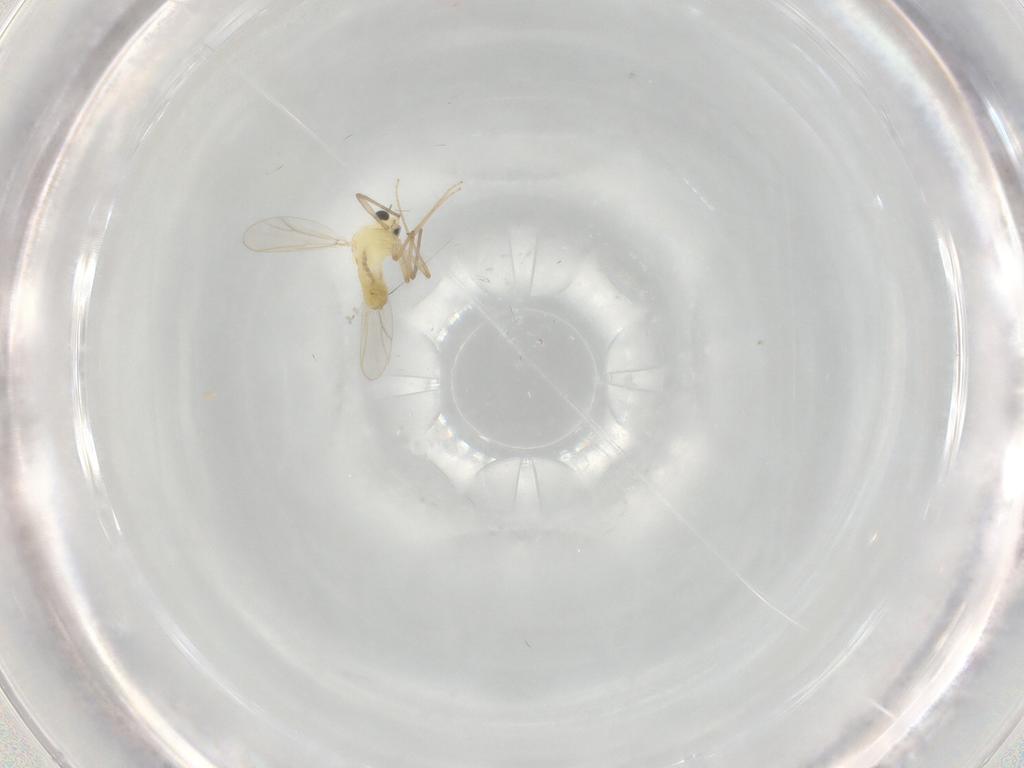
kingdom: Animalia
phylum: Arthropoda
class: Insecta
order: Diptera
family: Chironomidae
